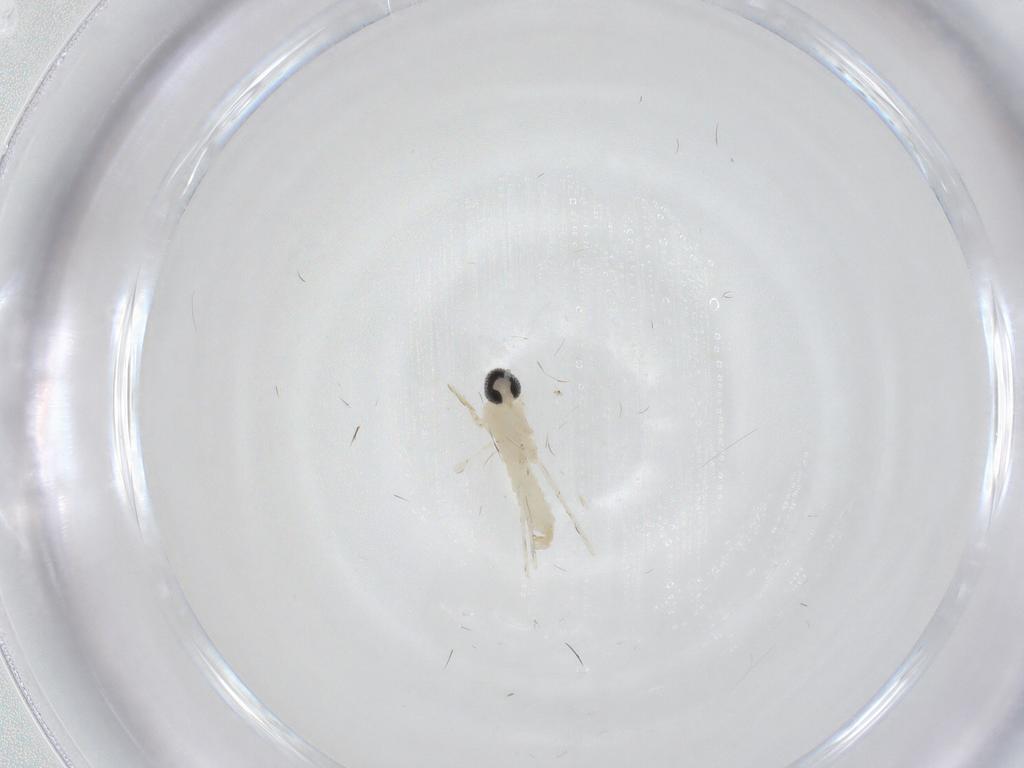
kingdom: Animalia
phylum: Arthropoda
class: Insecta
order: Diptera
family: Cecidomyiidae
